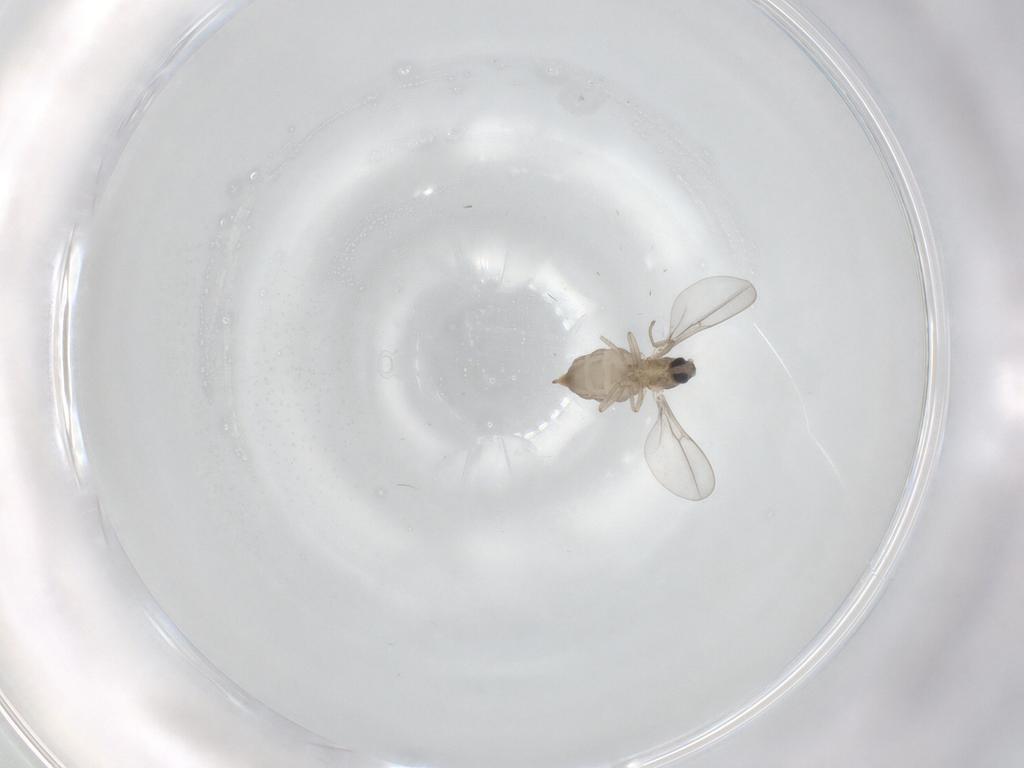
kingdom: Animalia
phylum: Arthropoda
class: Insecta
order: Diptera
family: Cecidomyiidae
